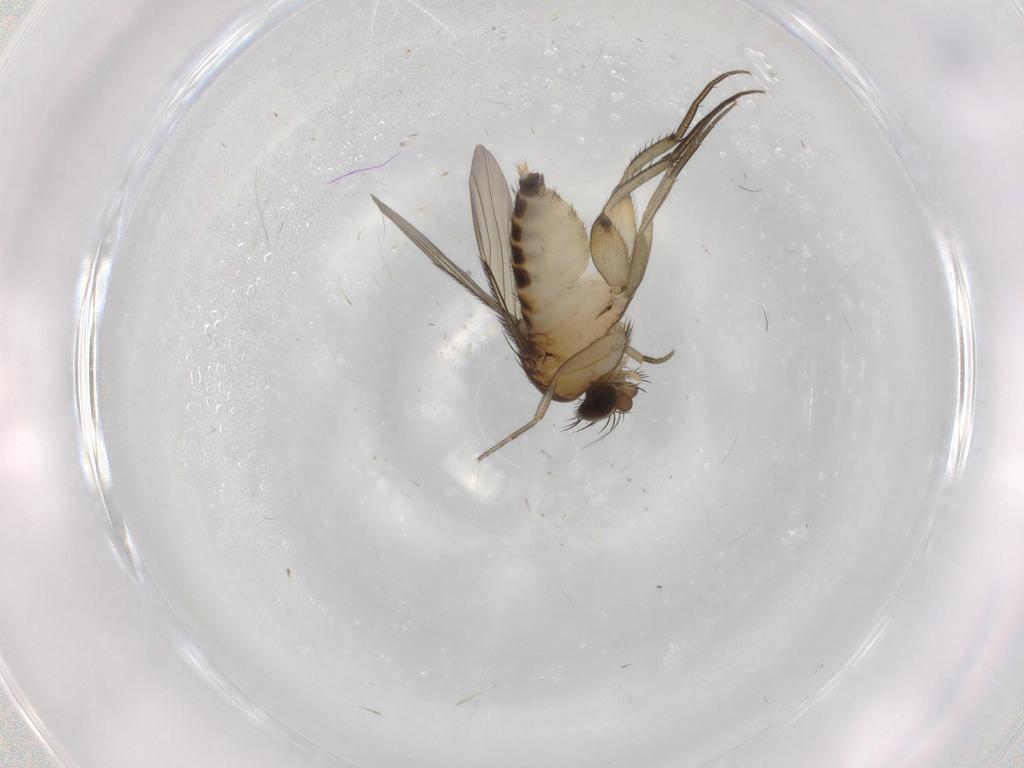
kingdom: Animalia
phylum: Arthropoda
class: Insecta
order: Diptera
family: Phoridae
